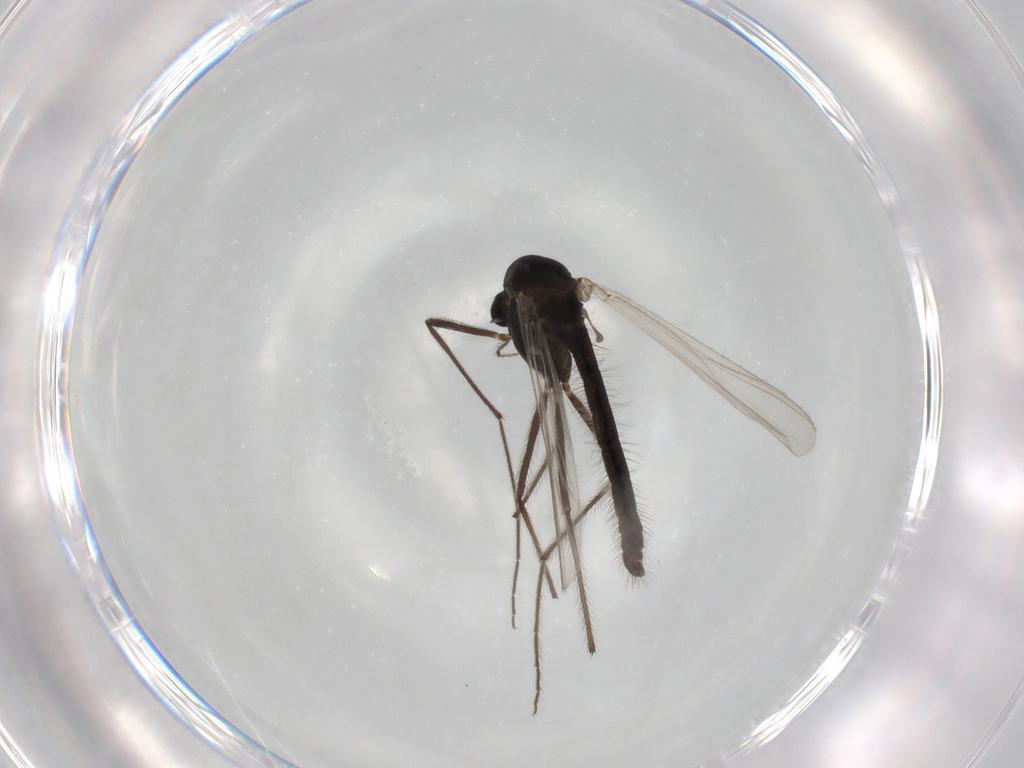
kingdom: Animalia
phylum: Arthropoda
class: Insecta
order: Diptera
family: Chironomidae
